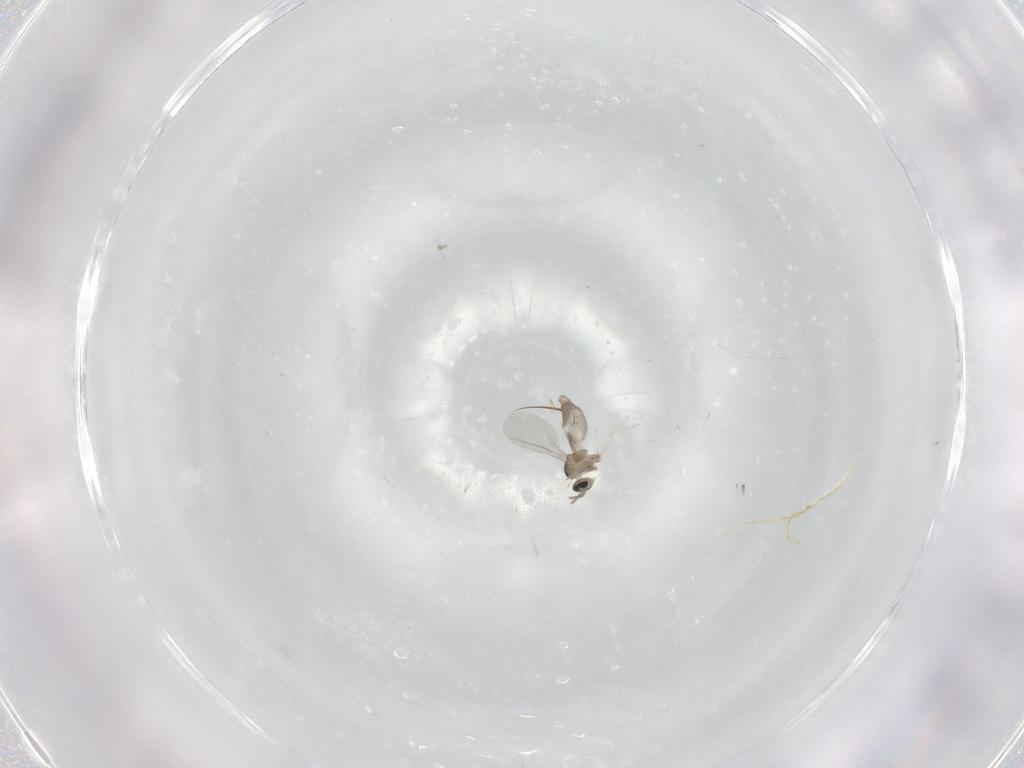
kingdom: Animalia
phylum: Arthropoda
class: Insecta
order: Diptera
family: Cecidomyiidae
